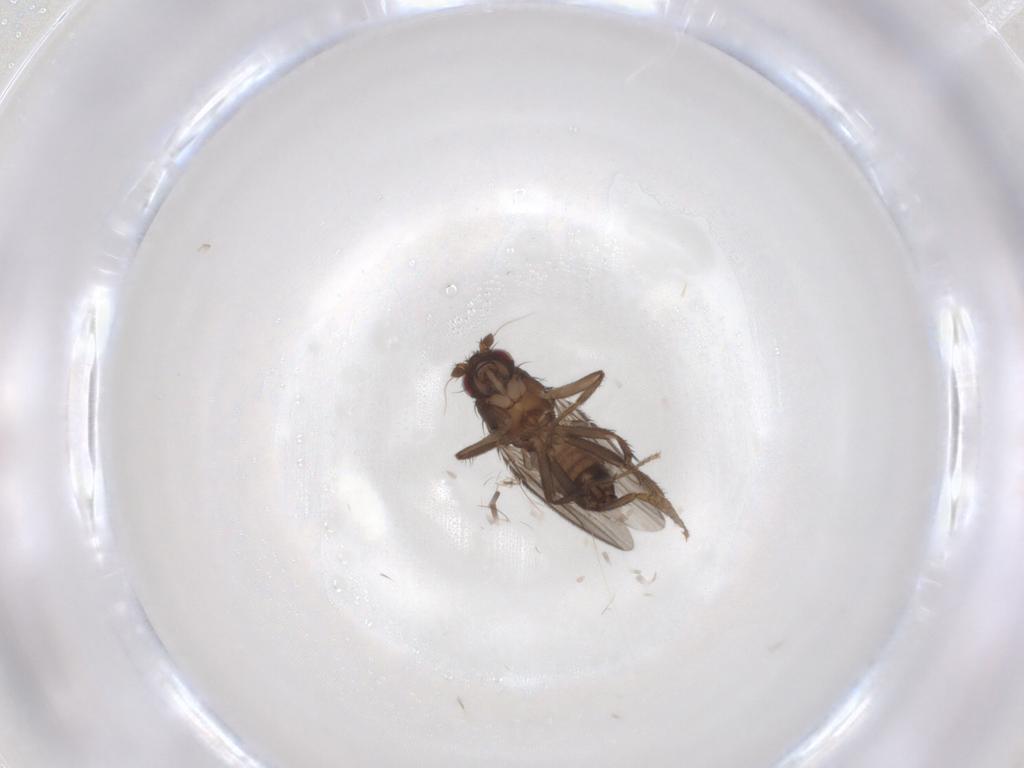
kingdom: Animalia
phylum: Arthropoda
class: Insecta
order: Diptera
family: Sphaeroceridae
